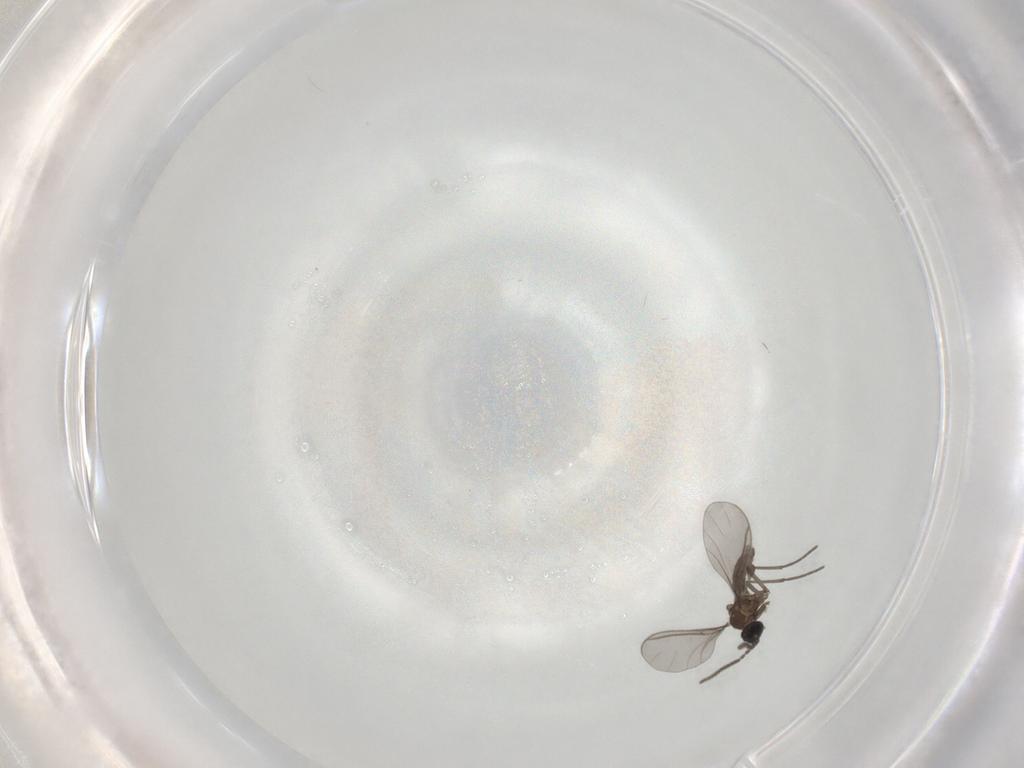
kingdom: Animalia
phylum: Arthropoda
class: Insecta
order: Diptera
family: Sciaridae
